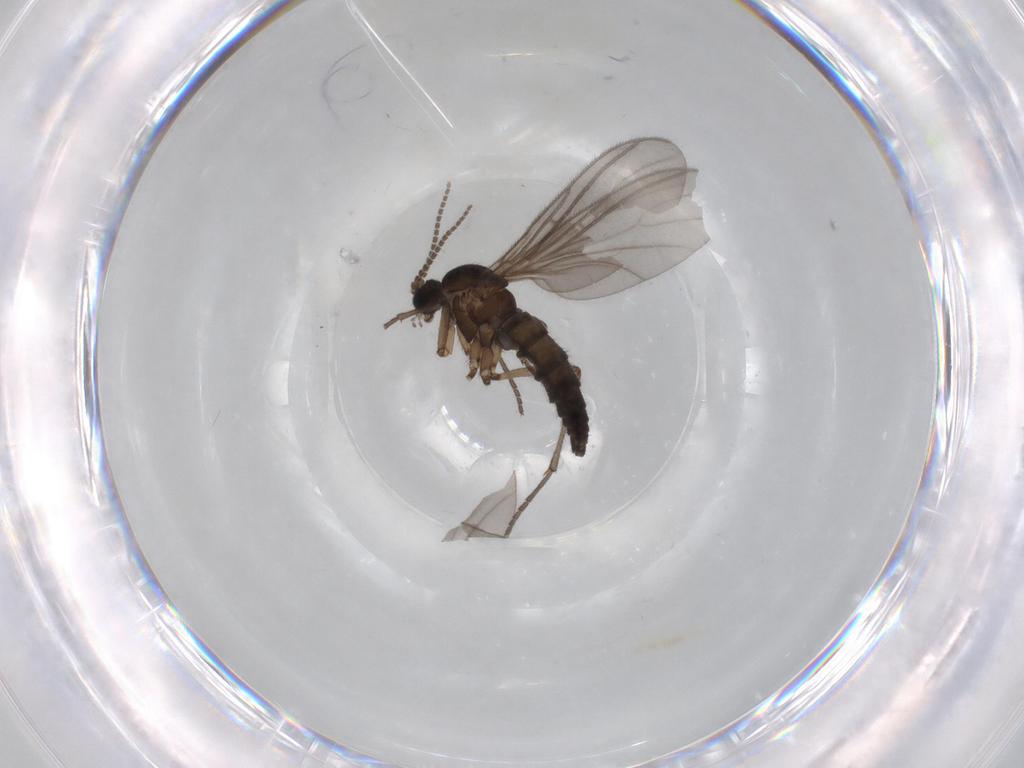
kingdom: Animalia
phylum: Arthropoda
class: Insecta
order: Diptera
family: Sciaridae
